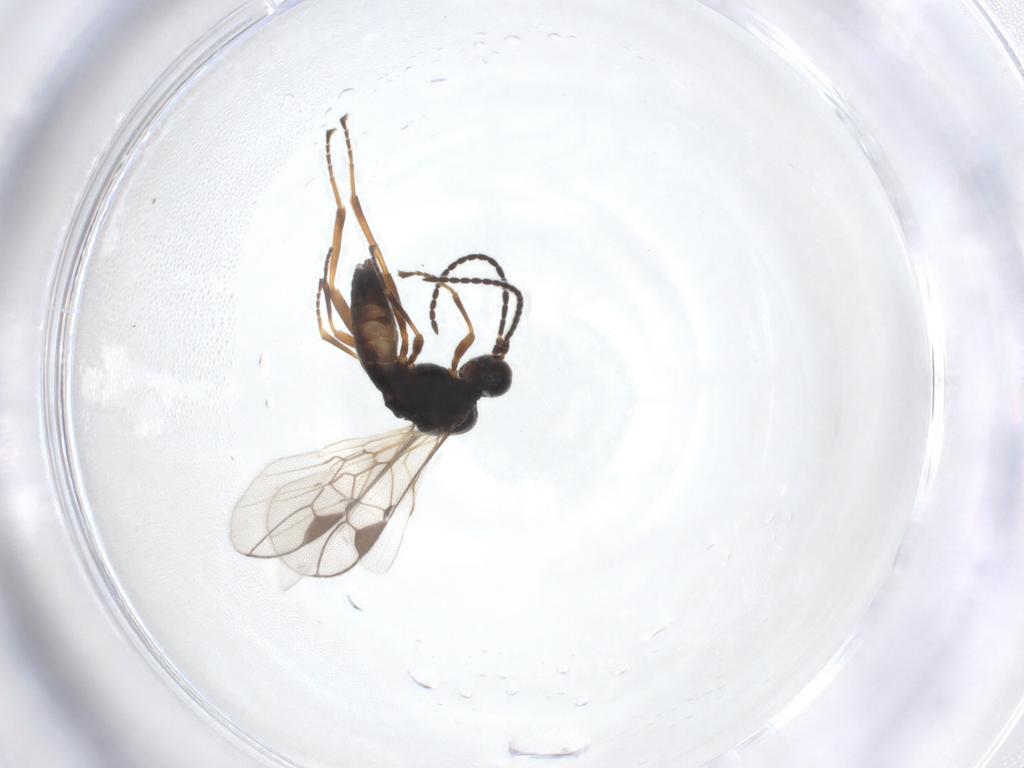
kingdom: Animalia
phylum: Arthropoda
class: Insecta
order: Hymenoptera
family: Braconidae
